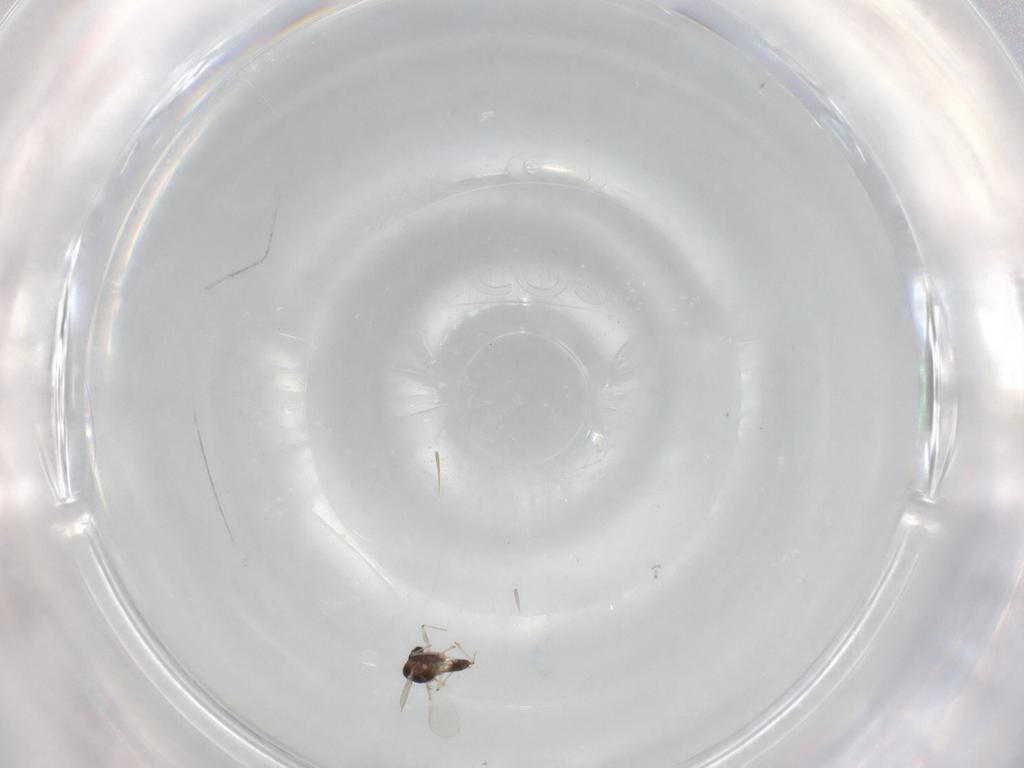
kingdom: Animalia
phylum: Arthropoda
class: Insecta
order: Diptera
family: Chironomidae
